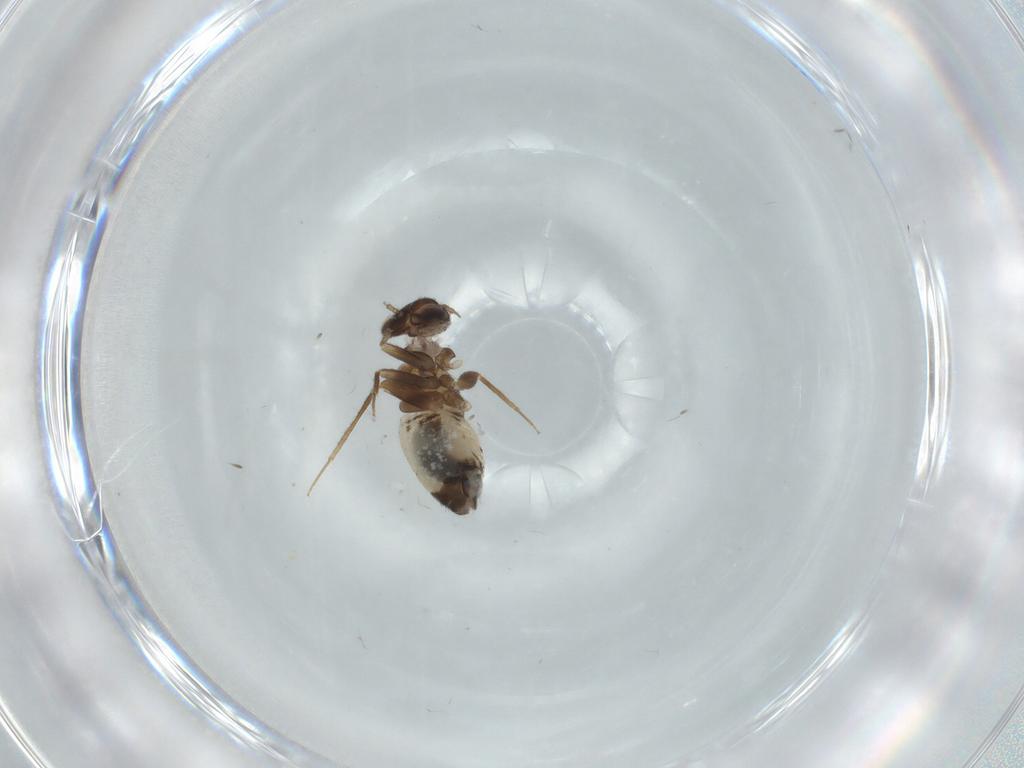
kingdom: Animalia
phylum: Arthropoda
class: Insecta
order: Psocodea
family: Lepidopsocidae
